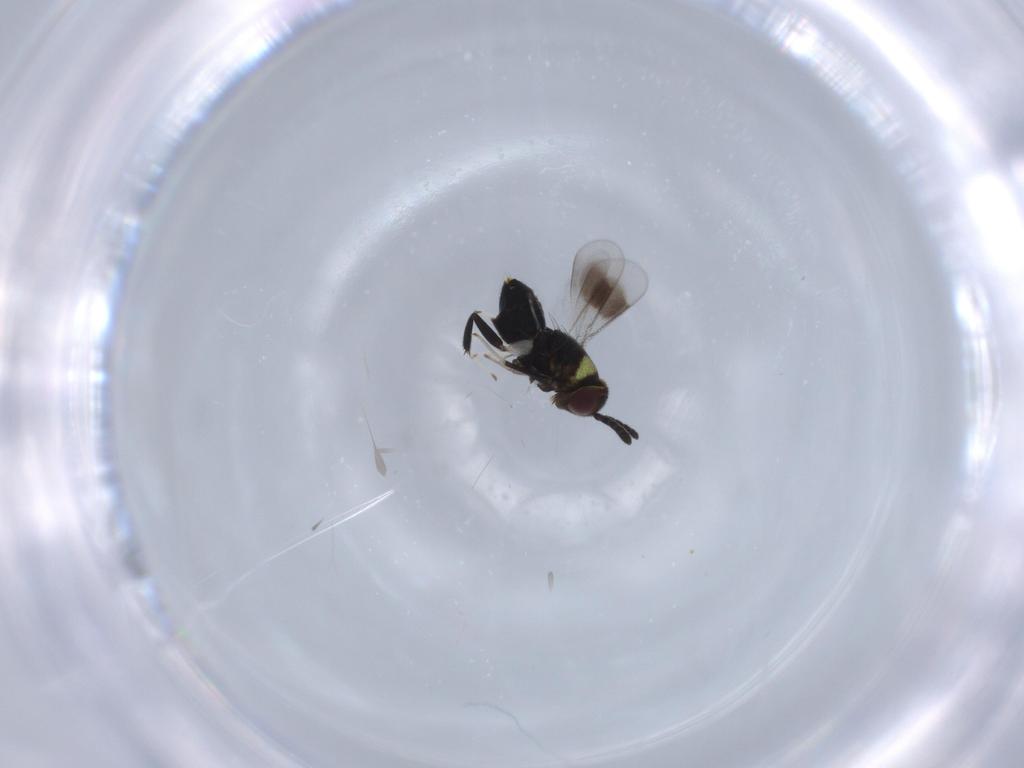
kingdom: Animalia
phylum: Arthropoda
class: Insecta
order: Hymenoptera
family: Aphelinidae
